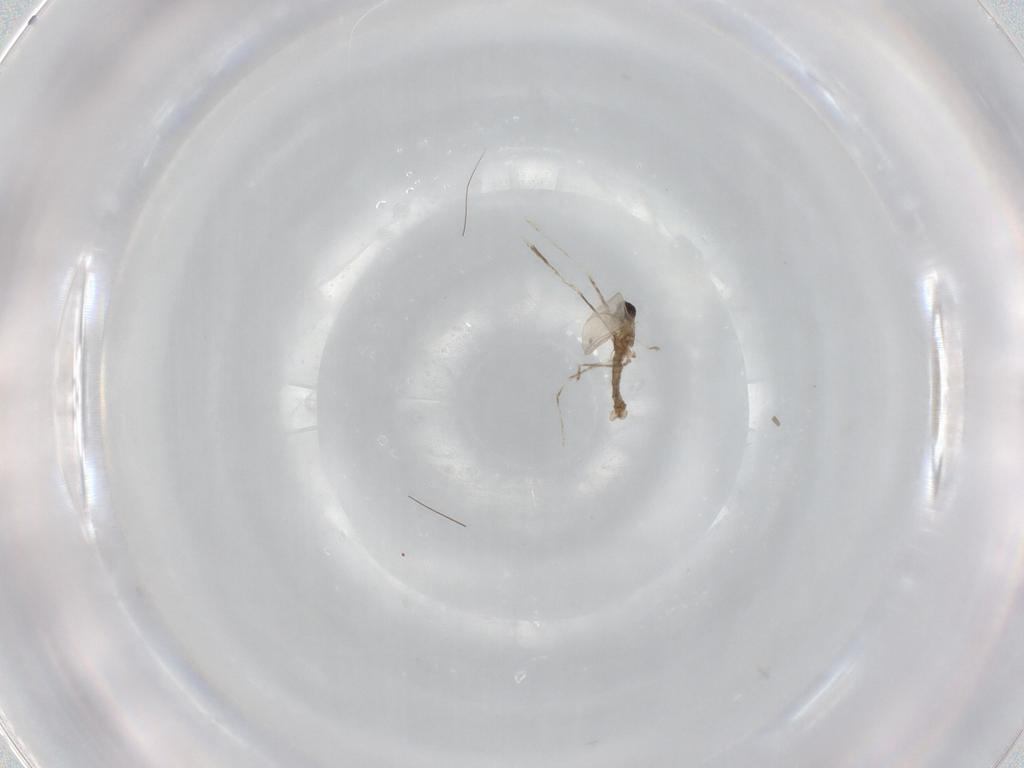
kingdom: Animalia
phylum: Arthropoda
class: Insecta
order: Diptera
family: Cecidomyiidae
